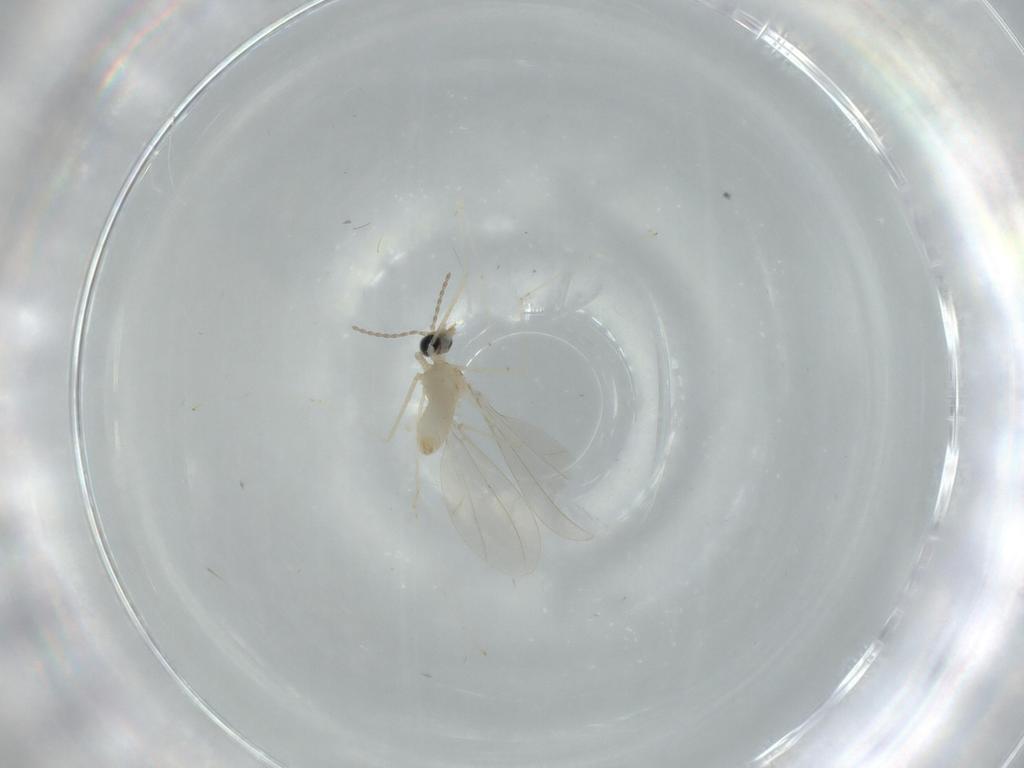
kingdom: Animalia
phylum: Arthropoda
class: Insecta
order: Diptera
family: Cecidomyiidae
